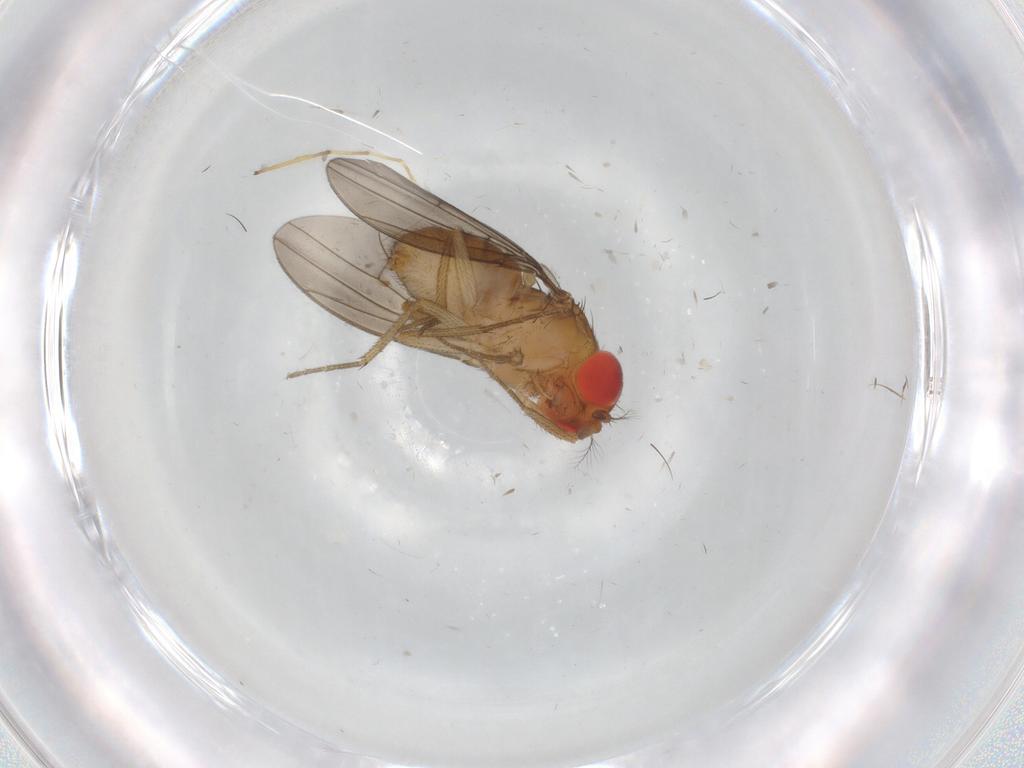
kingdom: Animalia
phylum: Arthropoda
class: Insecta
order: Diptera
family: Drosophilidae
